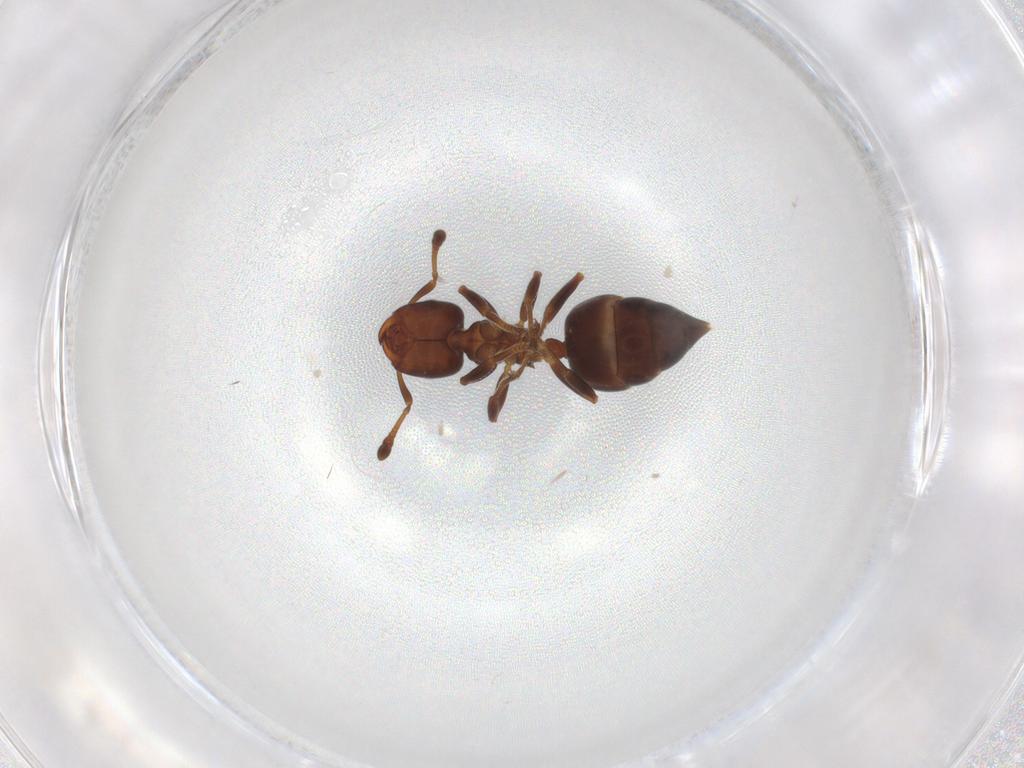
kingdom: Animalia
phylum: Arthropoda
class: Insecta
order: Hymenoptera
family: Formicidae
